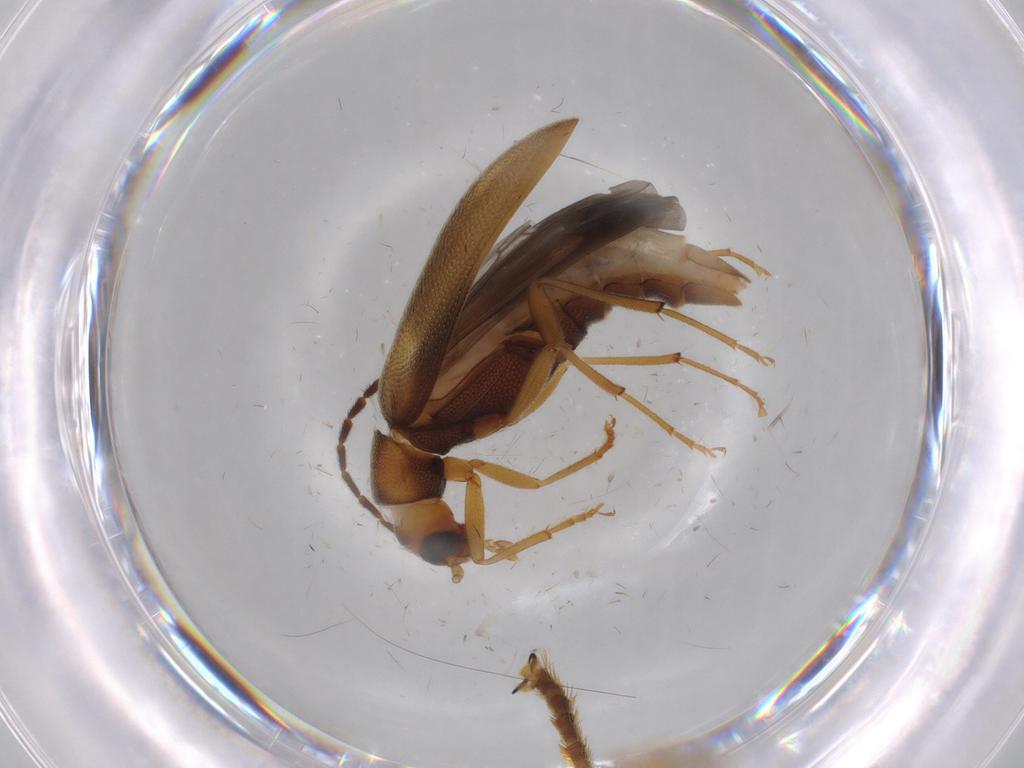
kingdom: Animalia
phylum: Arthropoda
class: Insecta
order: Coleoptera
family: Melandryidae
